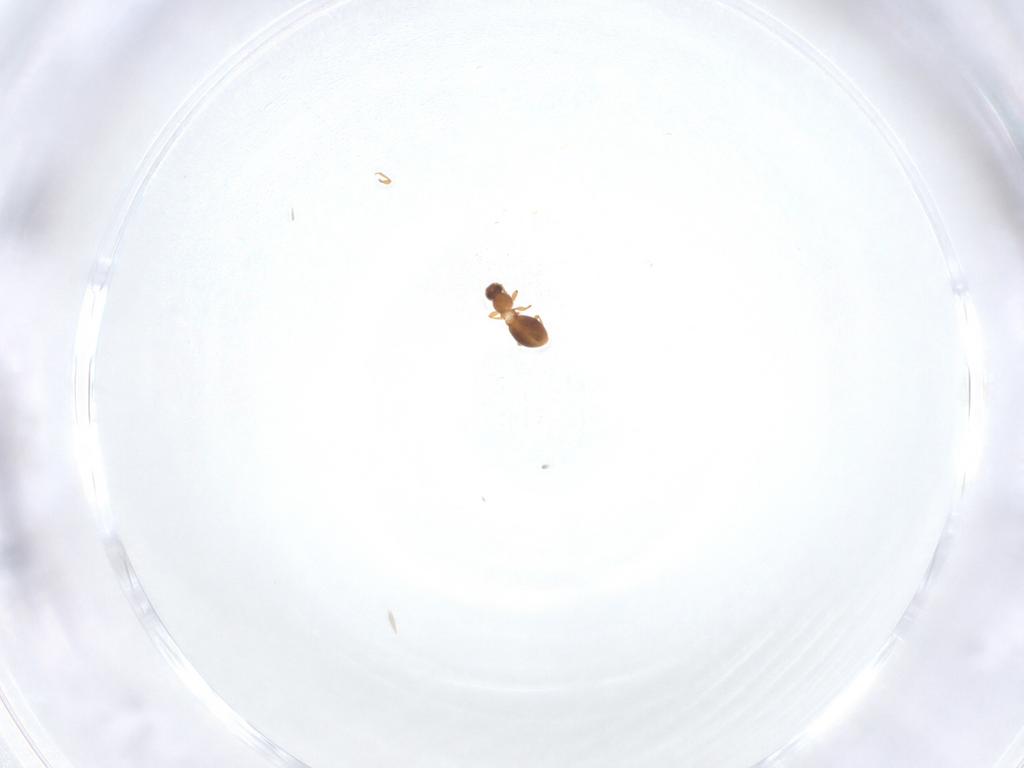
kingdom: Animalia
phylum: Arthropoda
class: Insecta
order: Coleoptera
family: Staphylinidae
